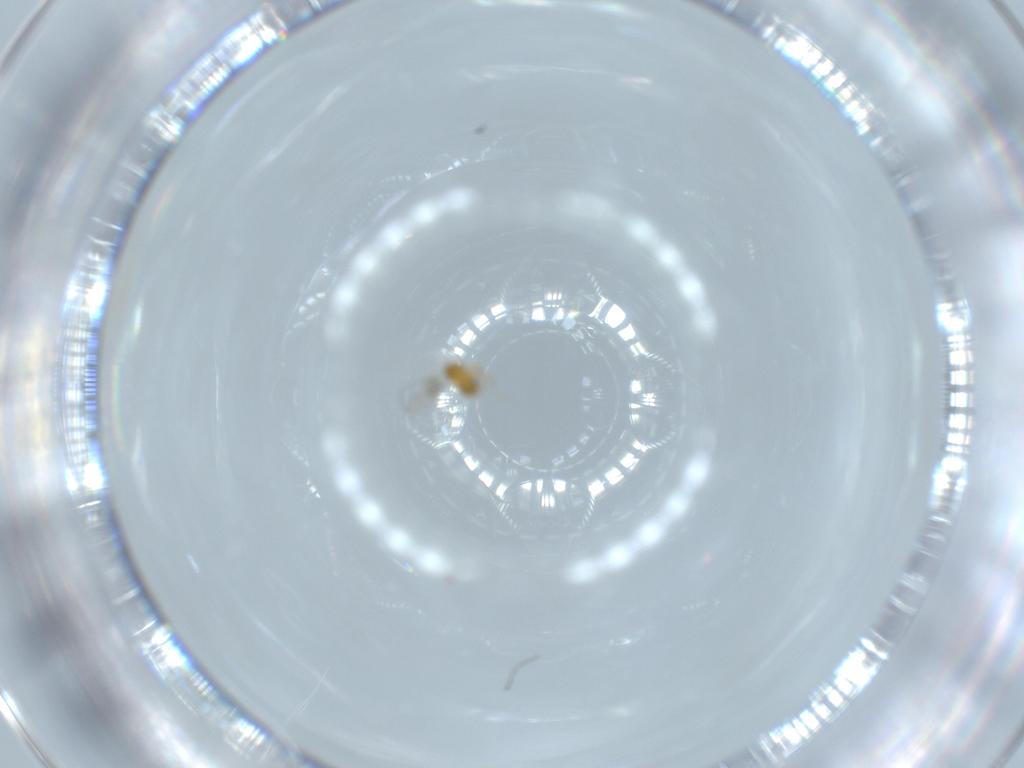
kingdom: Animalia
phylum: Arthropoda
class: Insecta
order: Hymenoptera
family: Trichogrammatidae
